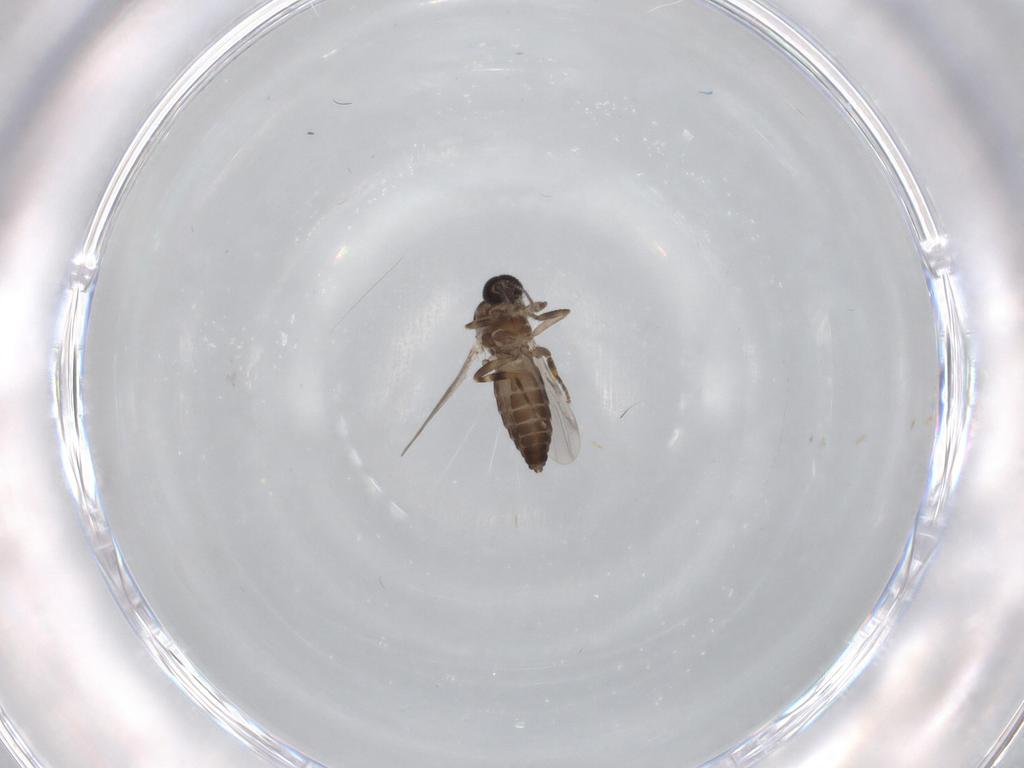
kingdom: Animalia
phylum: Arthropoda
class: Insecta
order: Diptera
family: Ceratopogonidae
